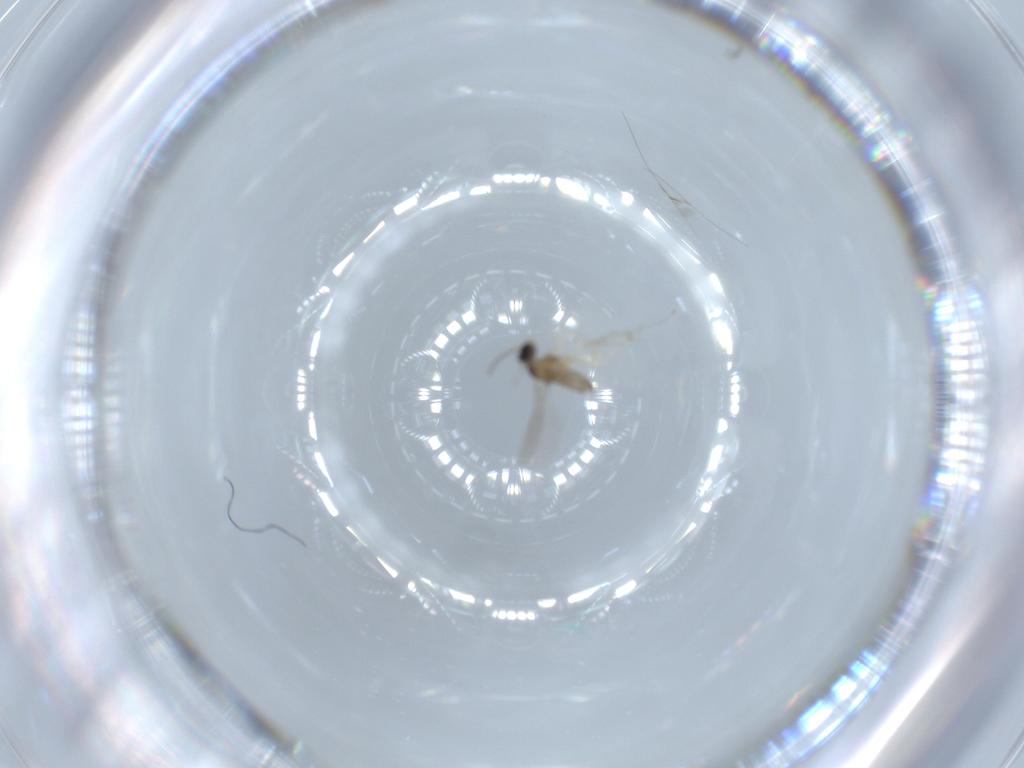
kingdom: Animalia
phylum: Arthropoda
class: Insecta
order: Diptera
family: Cecidomyiidae
